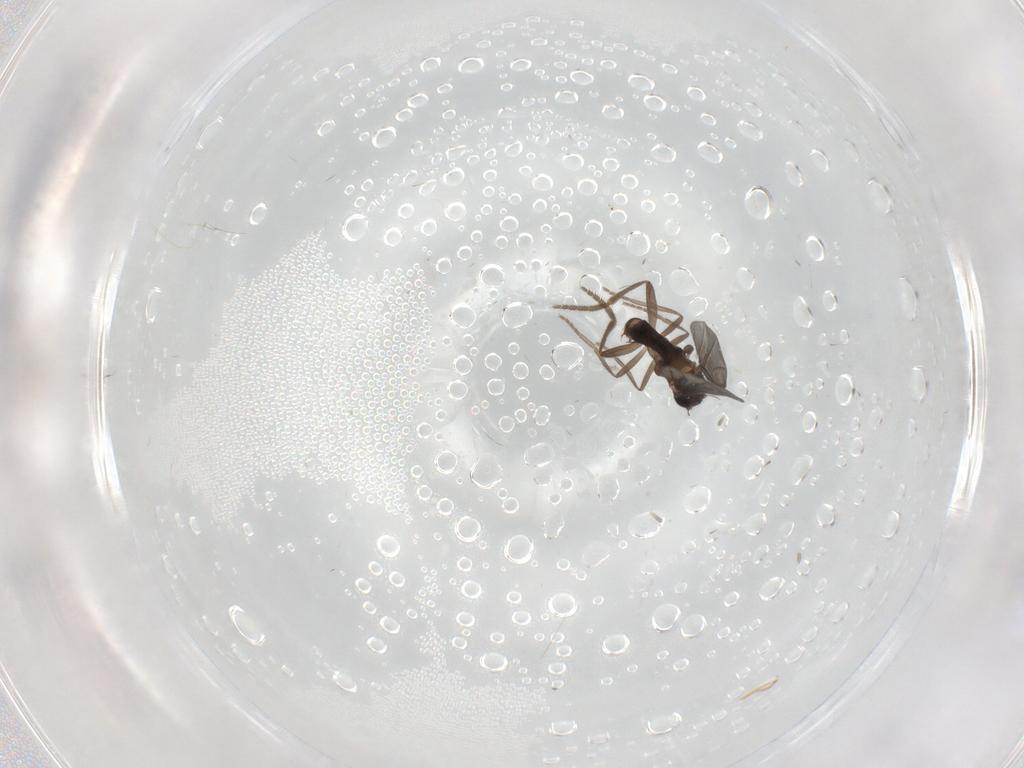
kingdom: Animalia
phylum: Arthropoda
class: Insecta
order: Diptera
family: Phoridae
